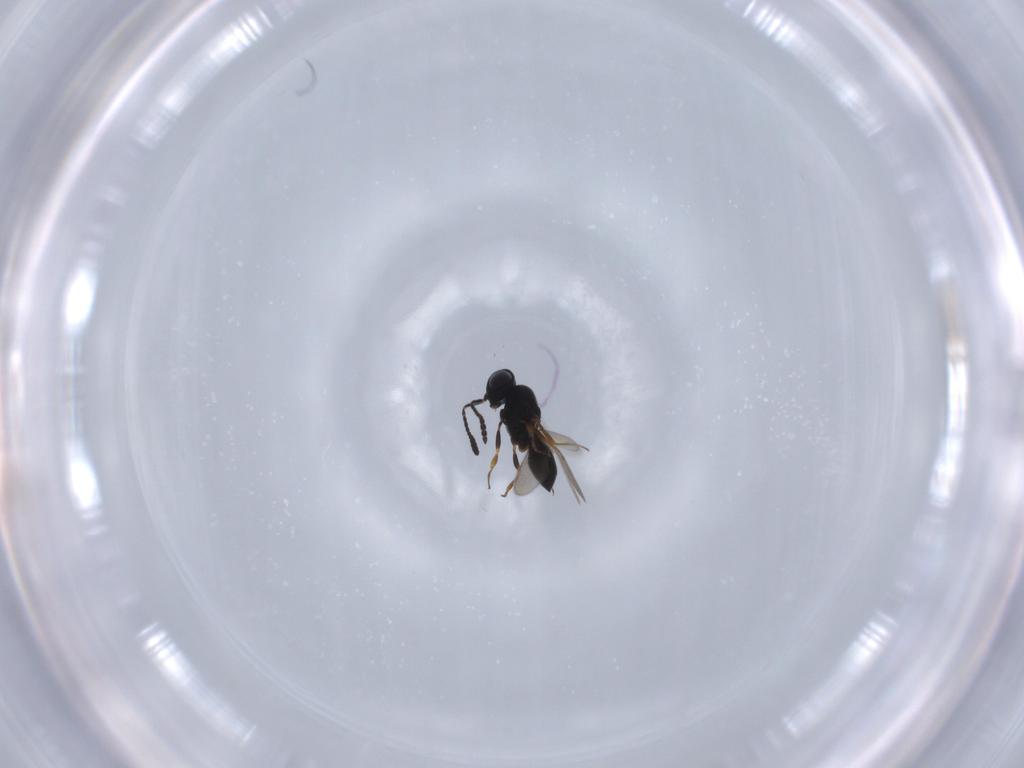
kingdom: Animalia
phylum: Arthropoda
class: Insecta
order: Hymenoptera
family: Scelionidae
